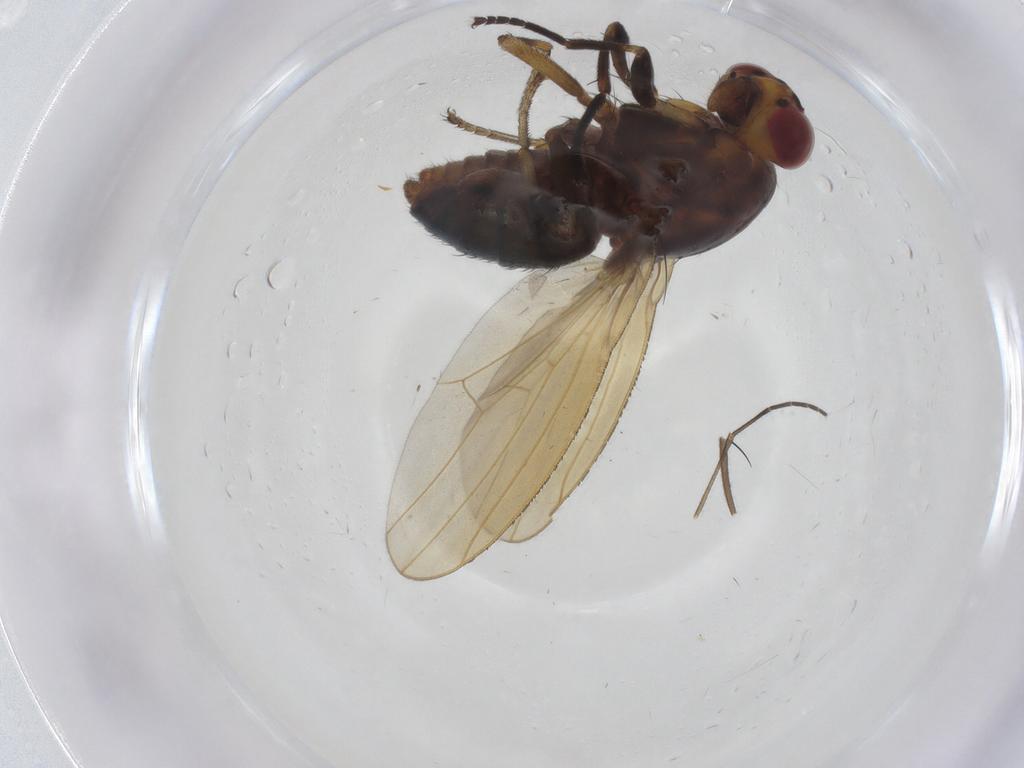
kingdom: Animalia
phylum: Arthropoda
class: Insecta
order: Diptera
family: Lauxaniidae
